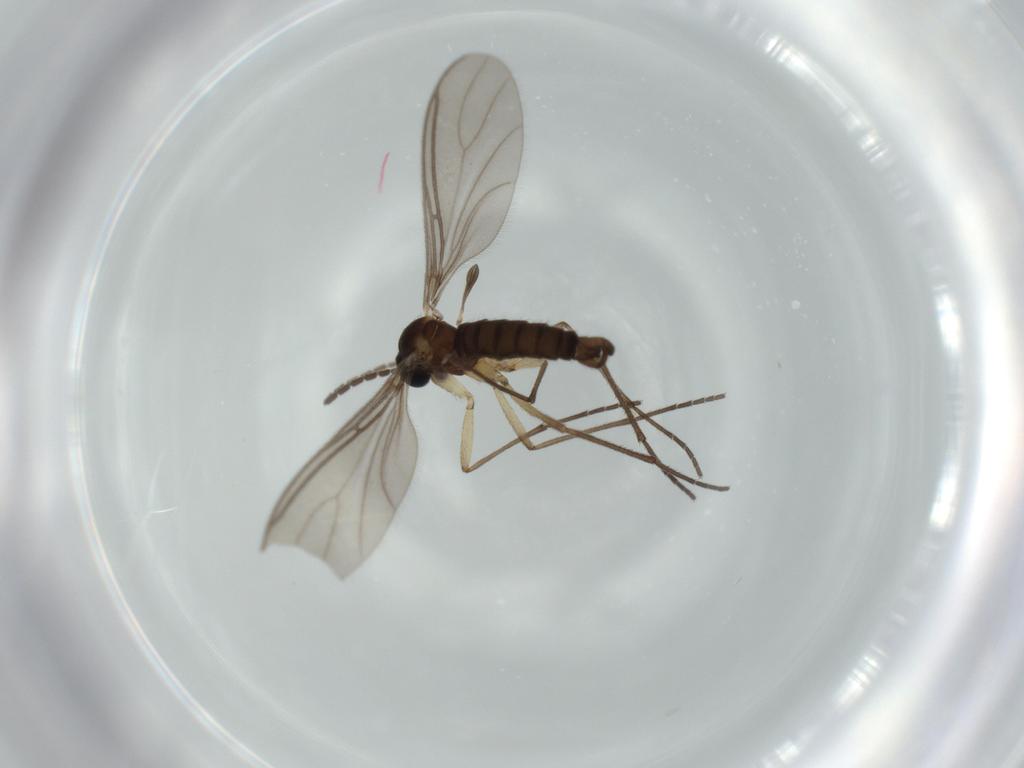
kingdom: Animalia
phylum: Arthropoda
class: Insecta
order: Diptera
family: Sciaridae
